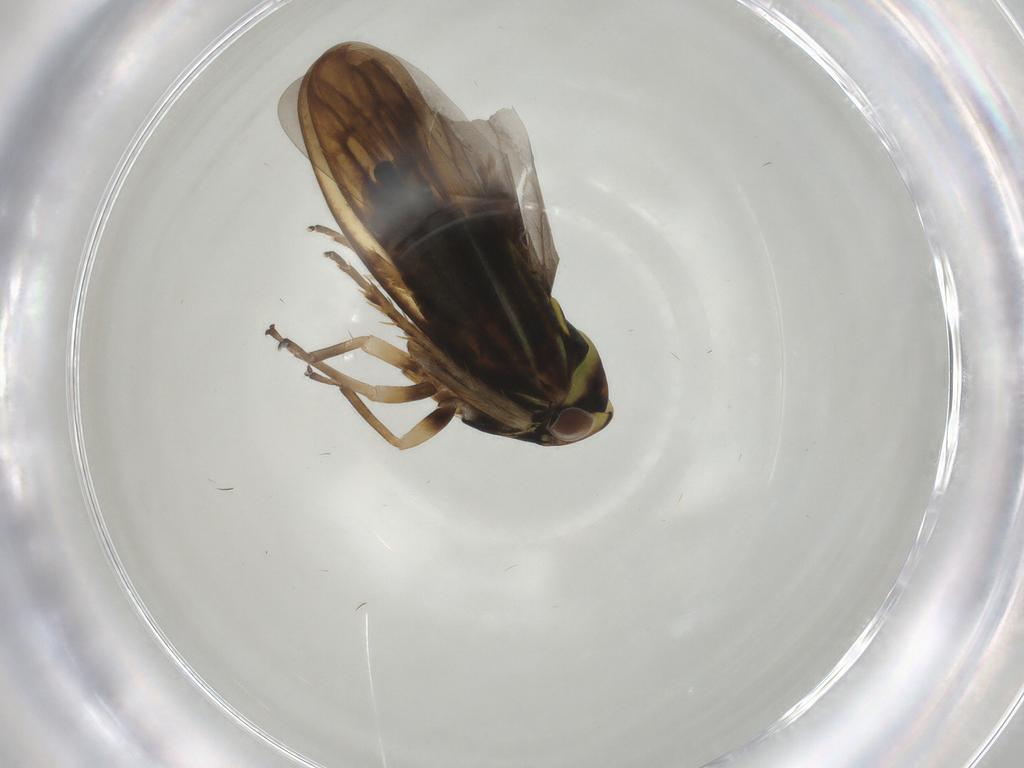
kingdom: Animalia
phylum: Arthropoda
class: Insecta
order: Hemiptera
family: Cicadellidae
